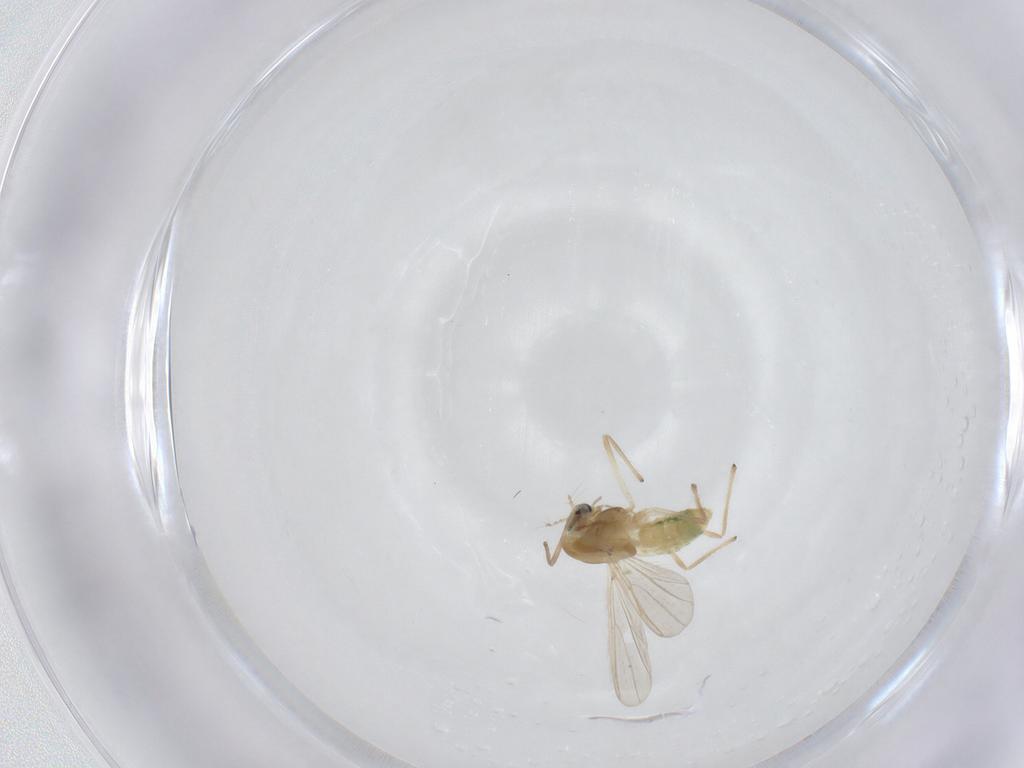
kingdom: Animalia
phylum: Arthropoda
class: Insecta
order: Diptera
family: Chironomidae
